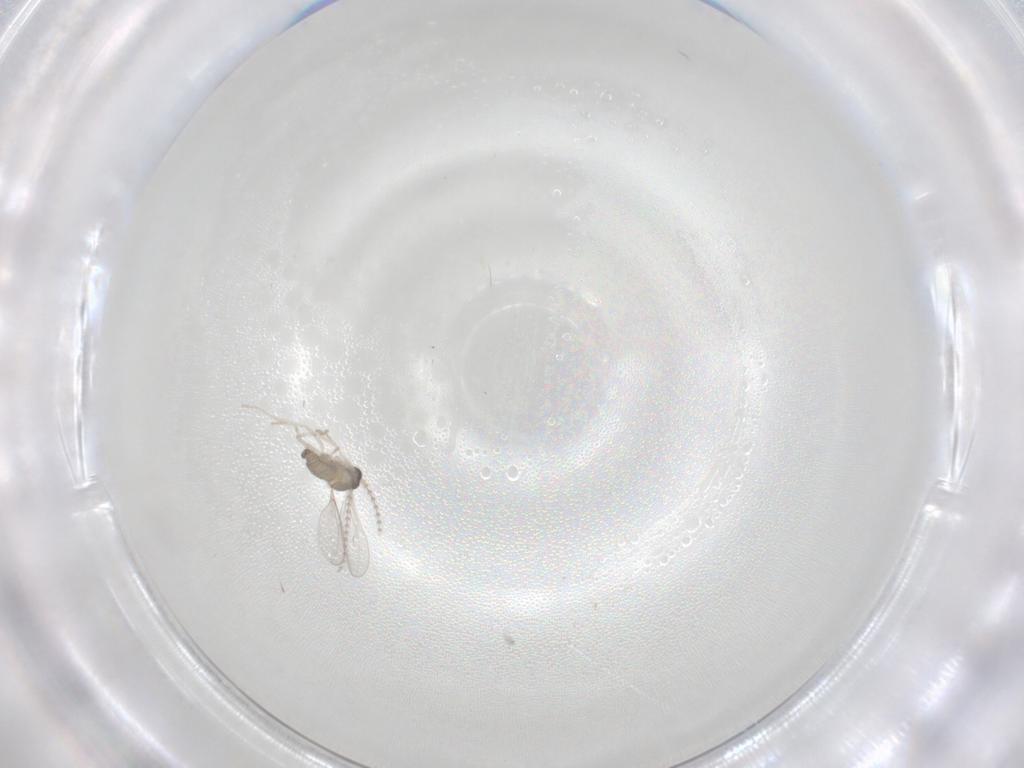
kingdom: Animalia
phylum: Arthropoda
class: Insecta
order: Diptera
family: Cecidomyiidae
